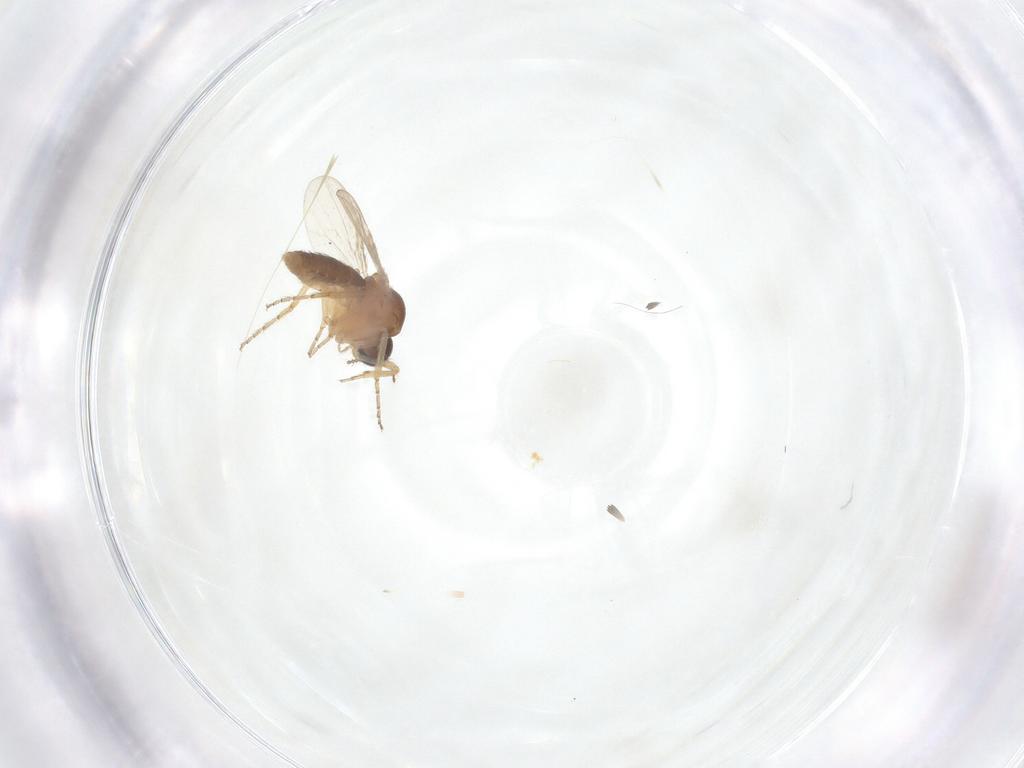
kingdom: Animalia
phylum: Arthropoda
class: Insecta
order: Diptera
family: Ceratopogonidae
